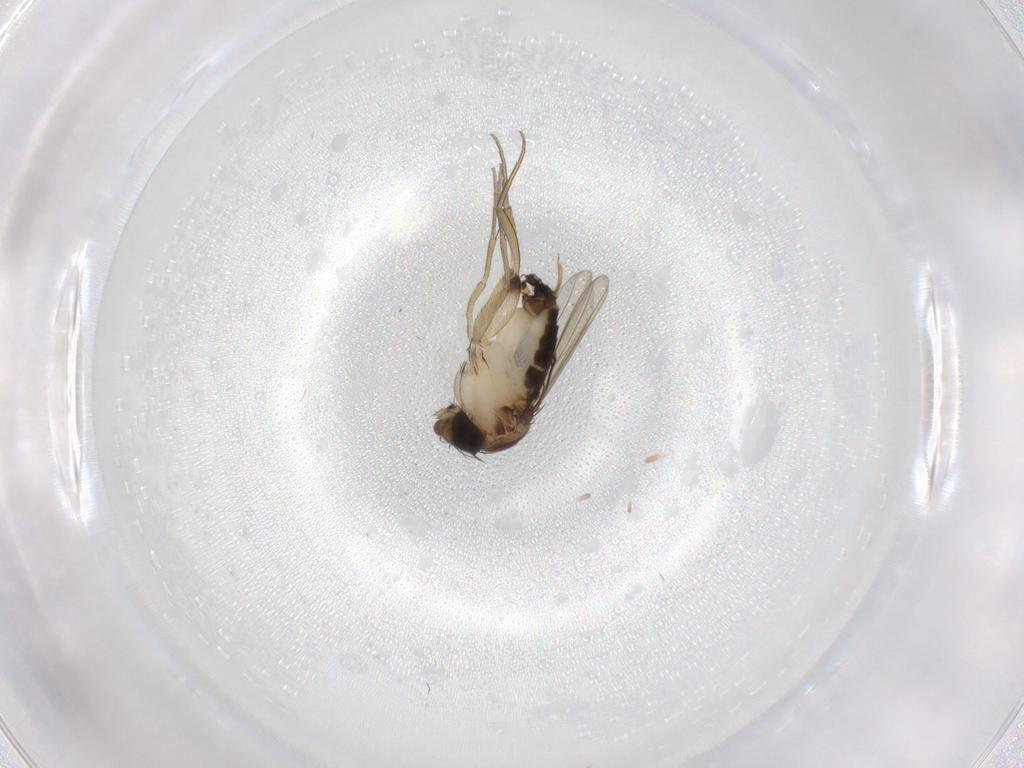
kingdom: Animalia
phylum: Arthropoda
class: Insecta
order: Diptera
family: Phoridae
